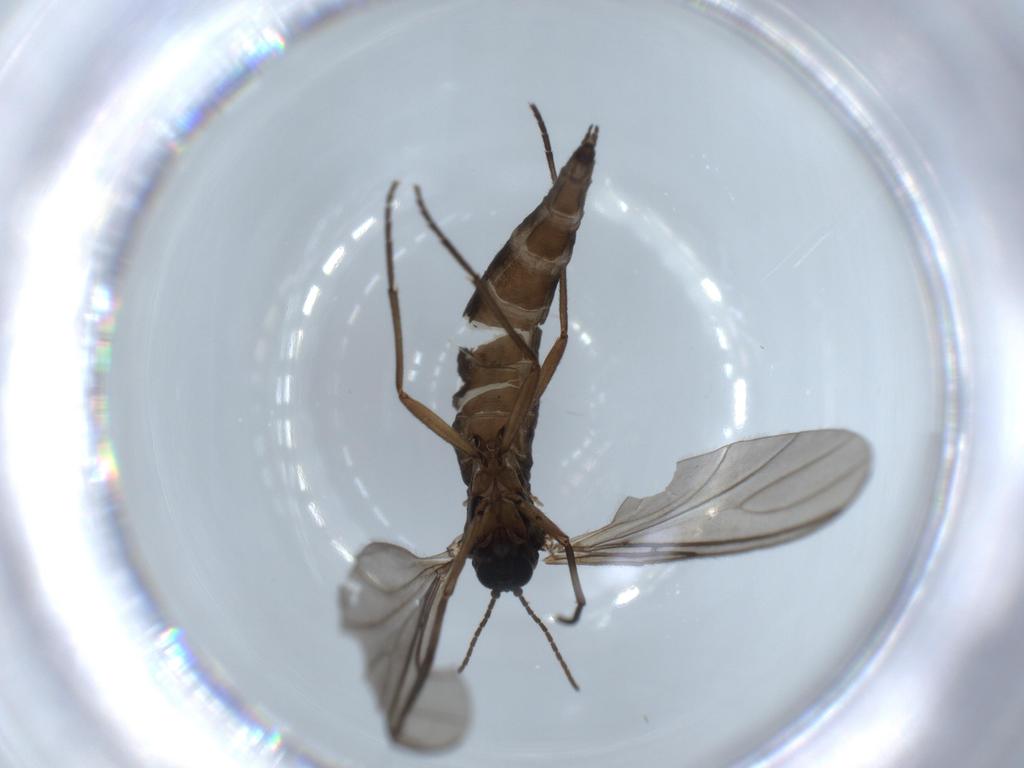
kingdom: Animalia
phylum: Arthropoda
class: Insecta
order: Diptera
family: Sciaridae
